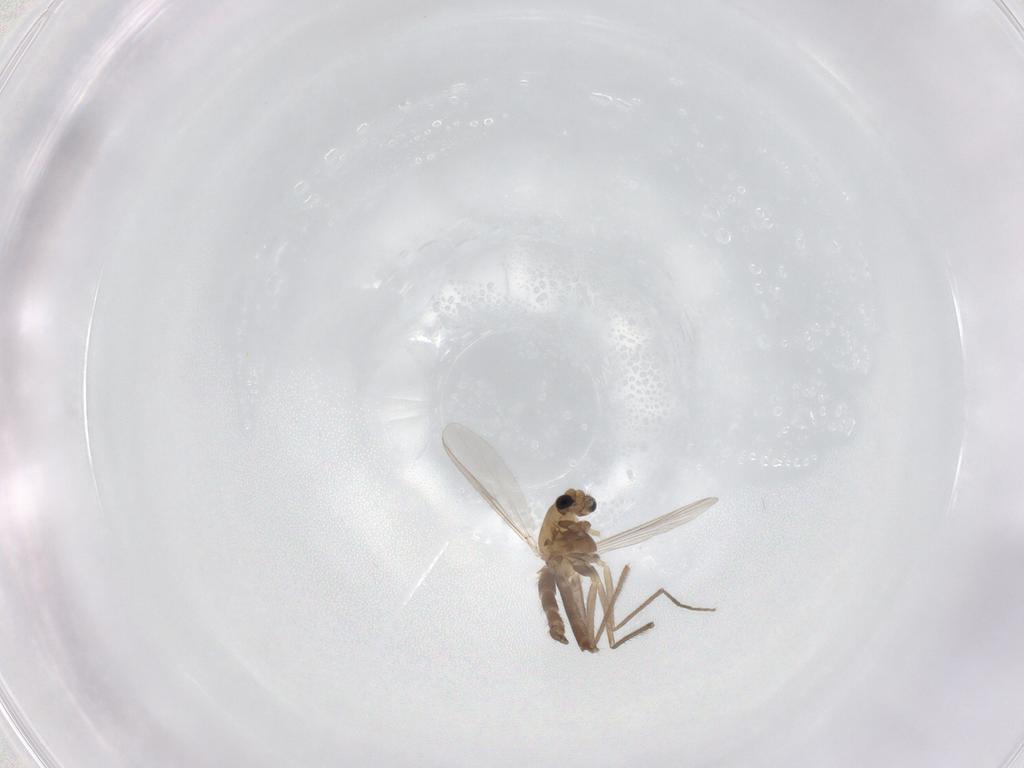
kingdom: Animalia
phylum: Arthropoda
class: Insecta
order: Diptera
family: Chironomidae
